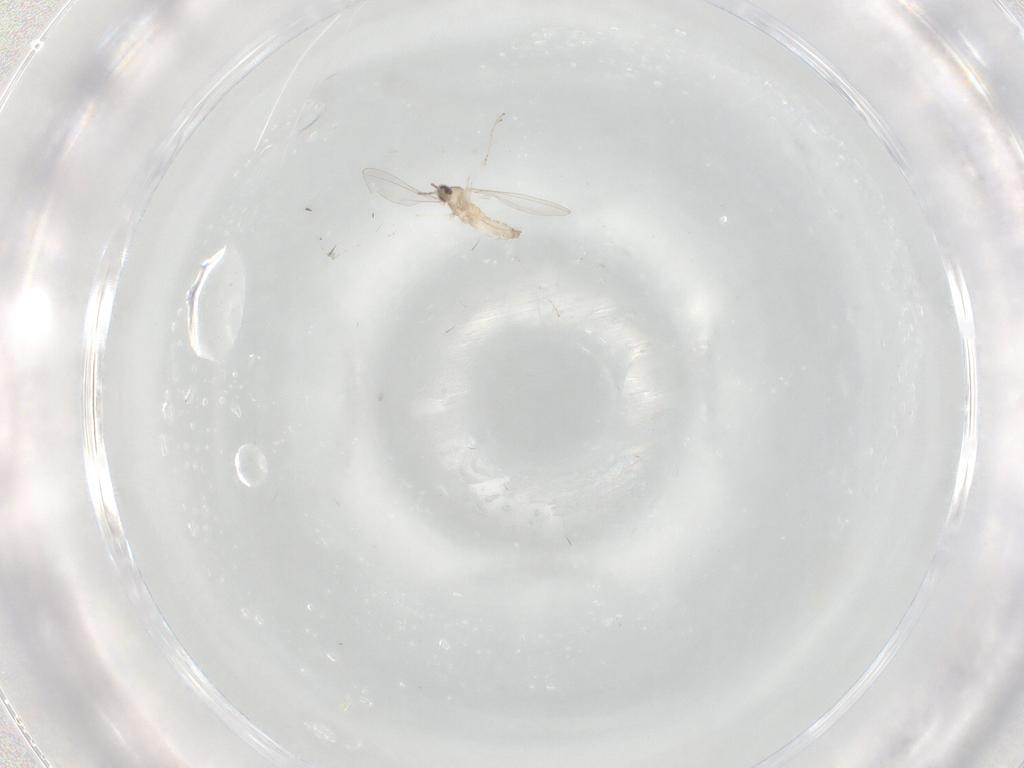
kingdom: Animalia
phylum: Arthropoda
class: Insecta
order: Diptera
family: Cecidomyiidae
